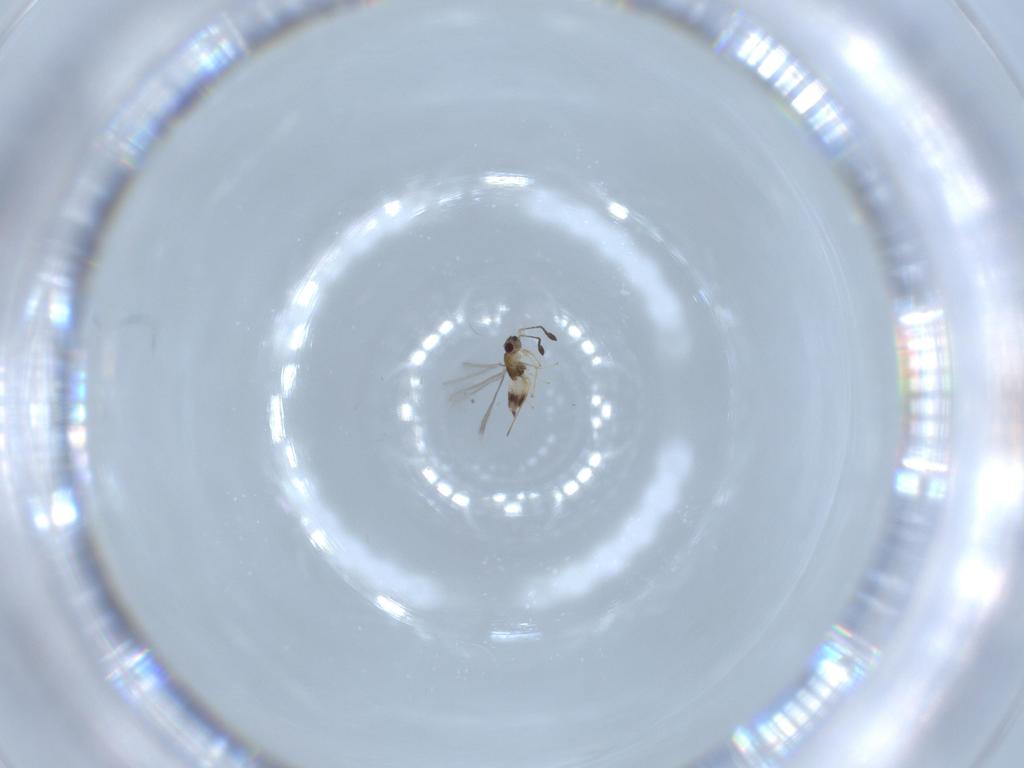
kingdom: Animalia
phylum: Arthropoda
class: Insecta
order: Hymenoptera
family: Mymaridae
